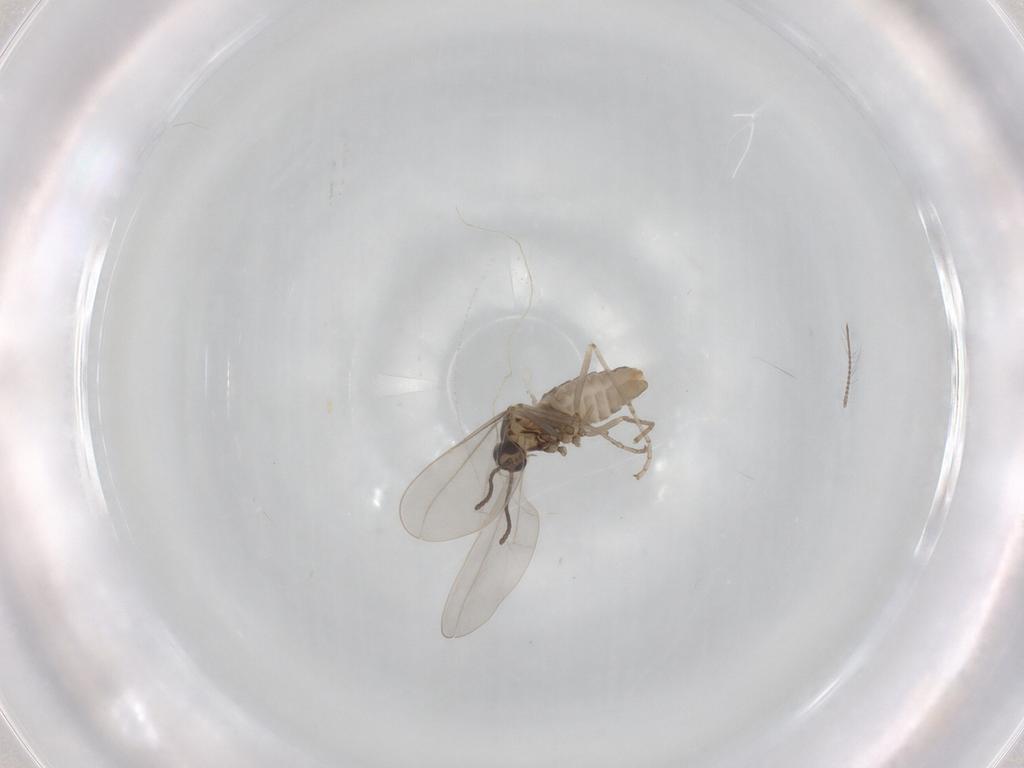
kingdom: Animalia
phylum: Arthropoda
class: Insecta
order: Diptera
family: Cecidomyiidae
